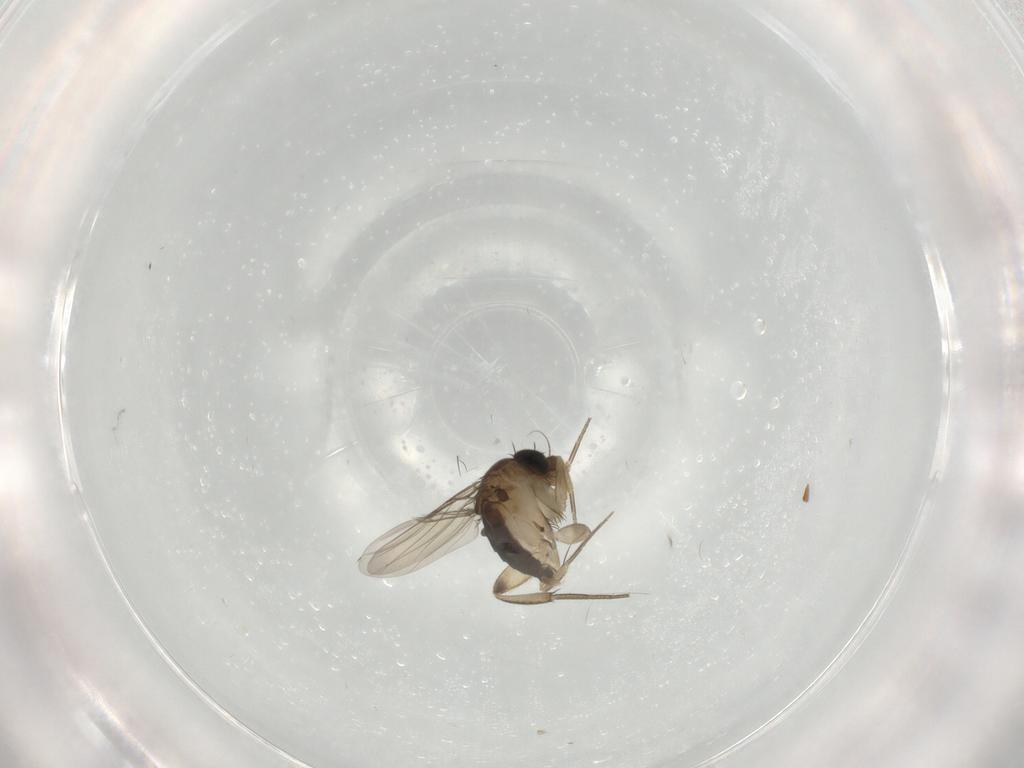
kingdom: Animalia
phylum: Arthropoda
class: Insecta
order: Diptera
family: Phoridae
